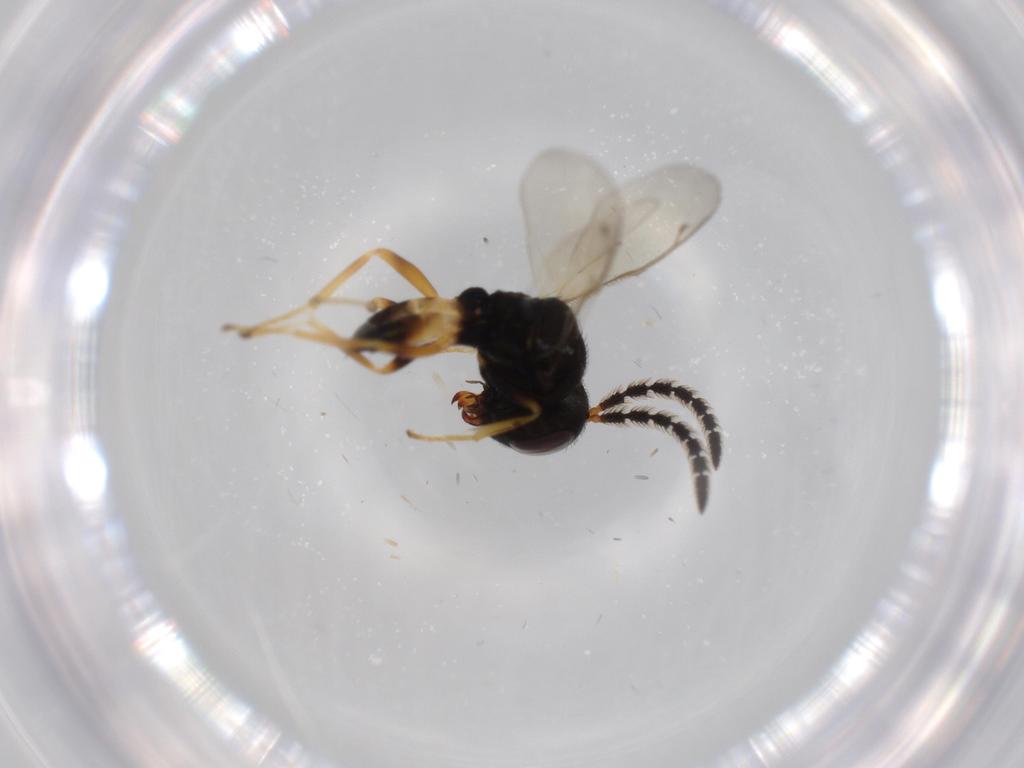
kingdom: Animalia
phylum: Arthropoda
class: Insecta
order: Hymenoptera
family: Pteromalidae
